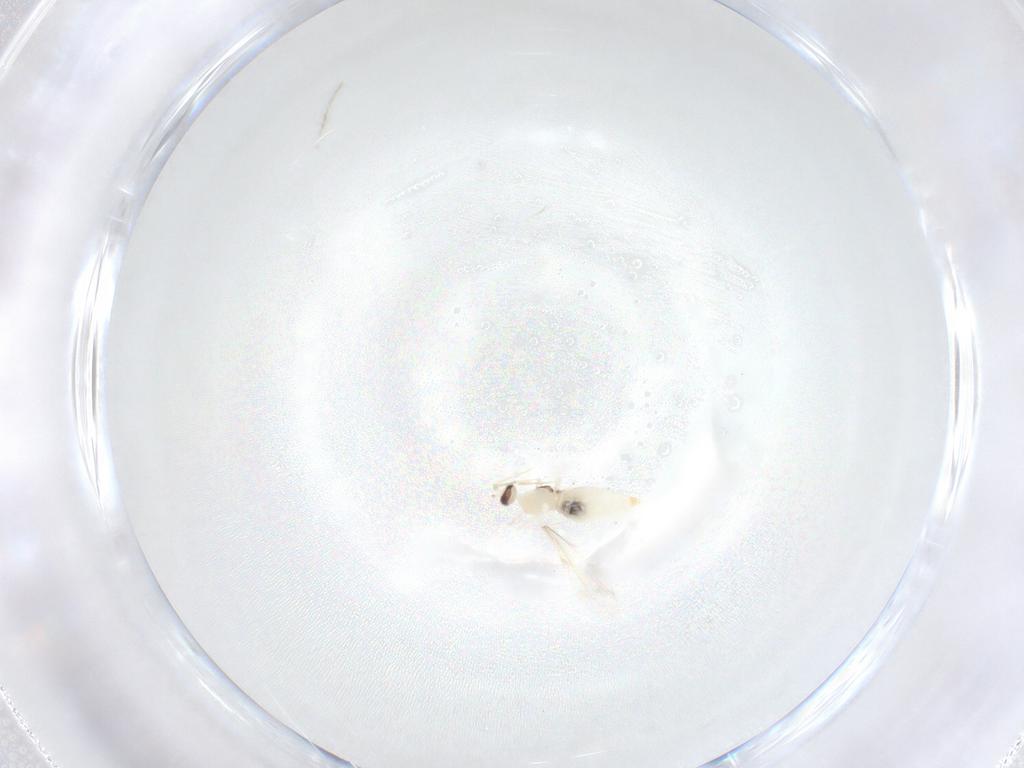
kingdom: Animalia
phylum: Arthropoda
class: Insecta
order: Diptera
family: Cecidomyiidae
